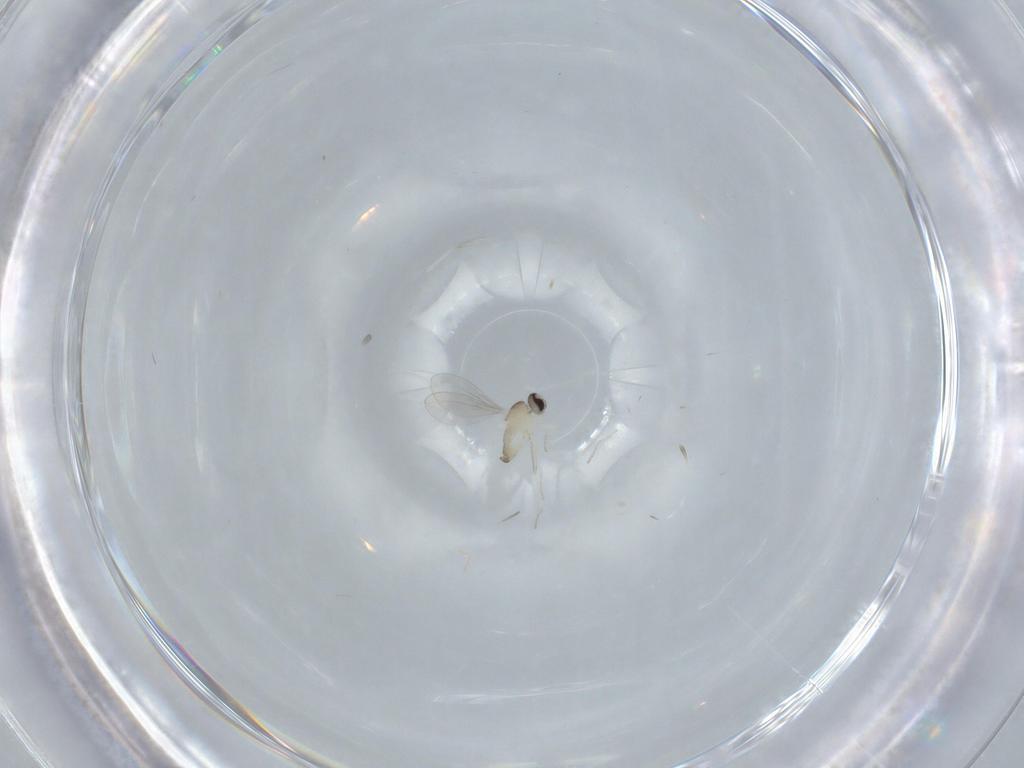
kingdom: Animalia
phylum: Arthropoda
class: Insecta
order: Diptera
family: Cecidomyiidae
